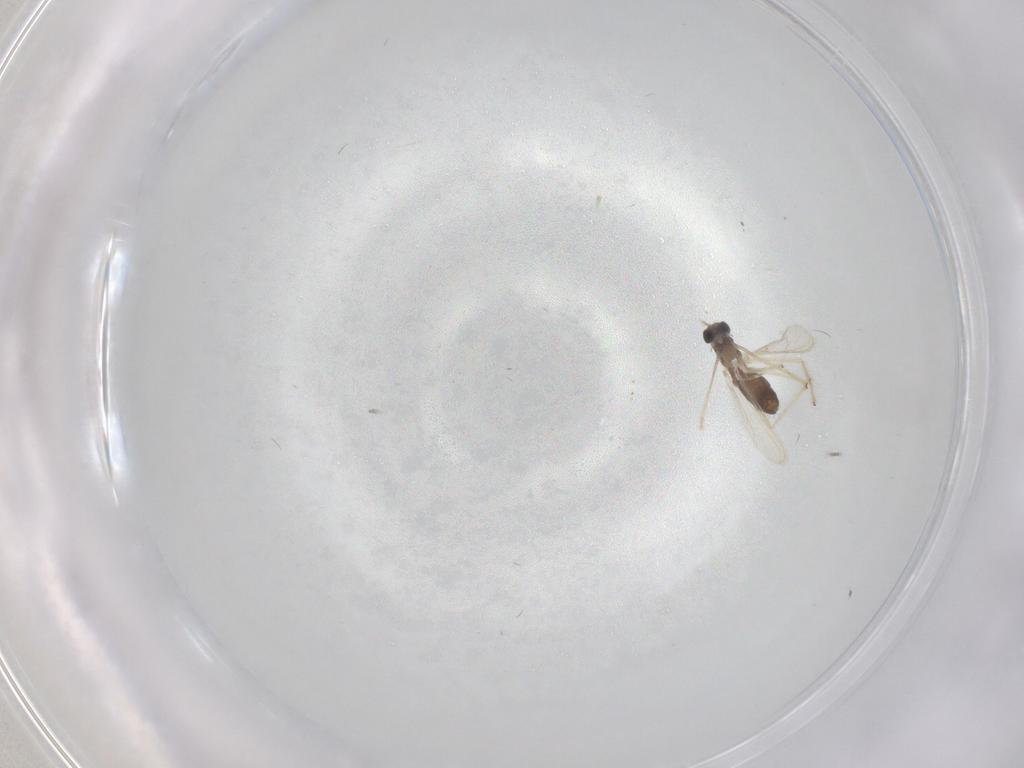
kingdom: Animalia
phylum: Arthropoda
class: Insecta
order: Diptera
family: Chironomidae
